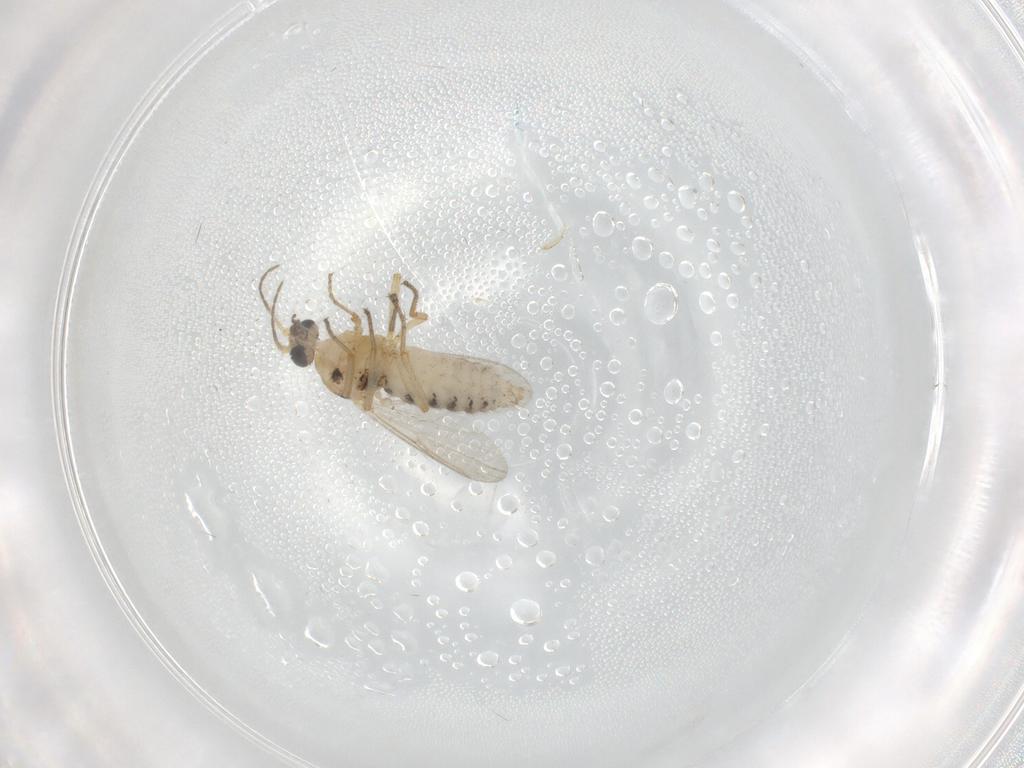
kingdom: Animalia
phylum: Arthropoda
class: Insecta
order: Diptera
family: Ceratopogonidae
